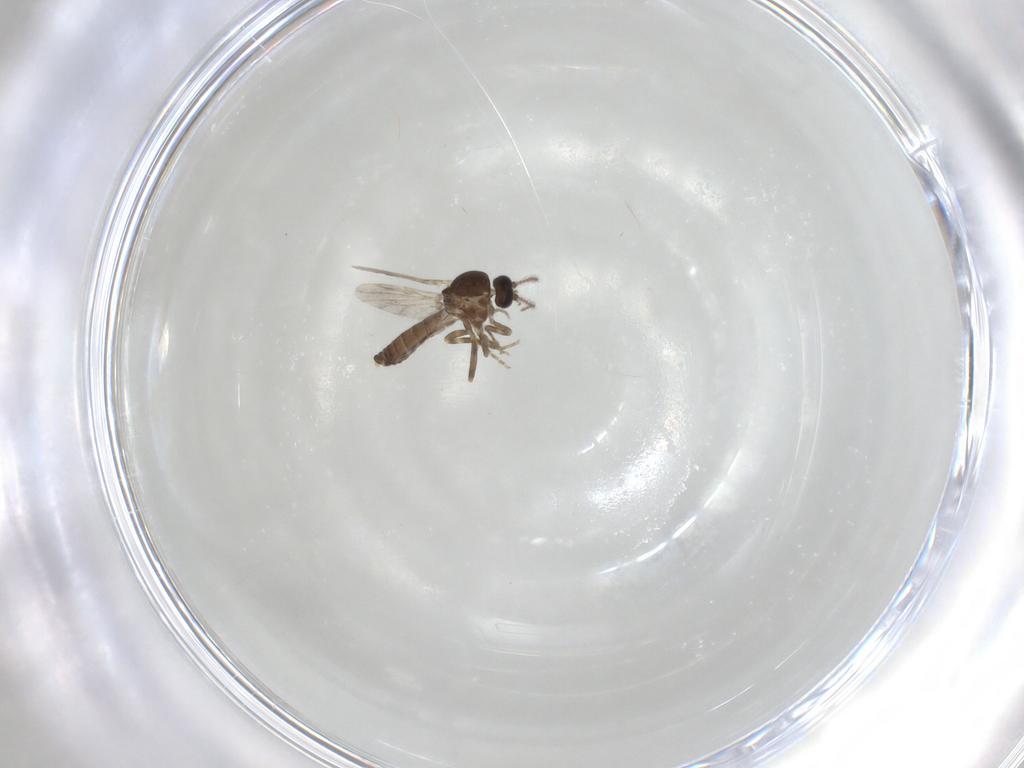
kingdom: Animalia
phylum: Arthropoda
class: Insecta
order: Diptera
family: Ceratopogonidae
